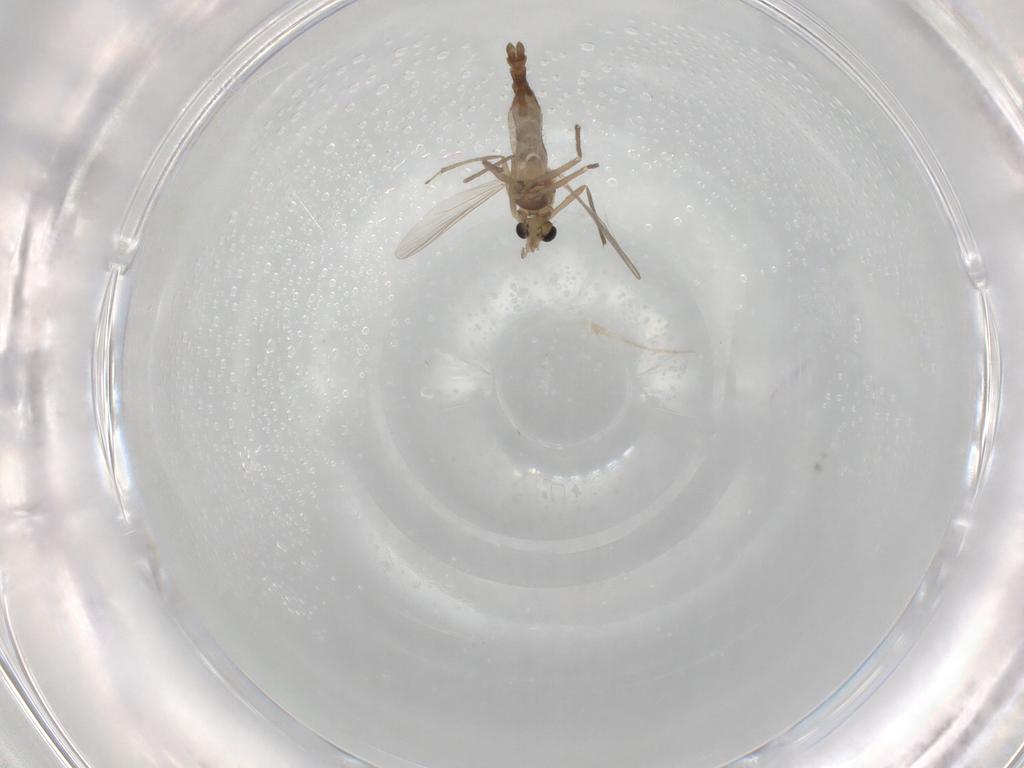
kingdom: Animalia
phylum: Arthropoda
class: Insecta
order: Diptera
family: Chironomidae
